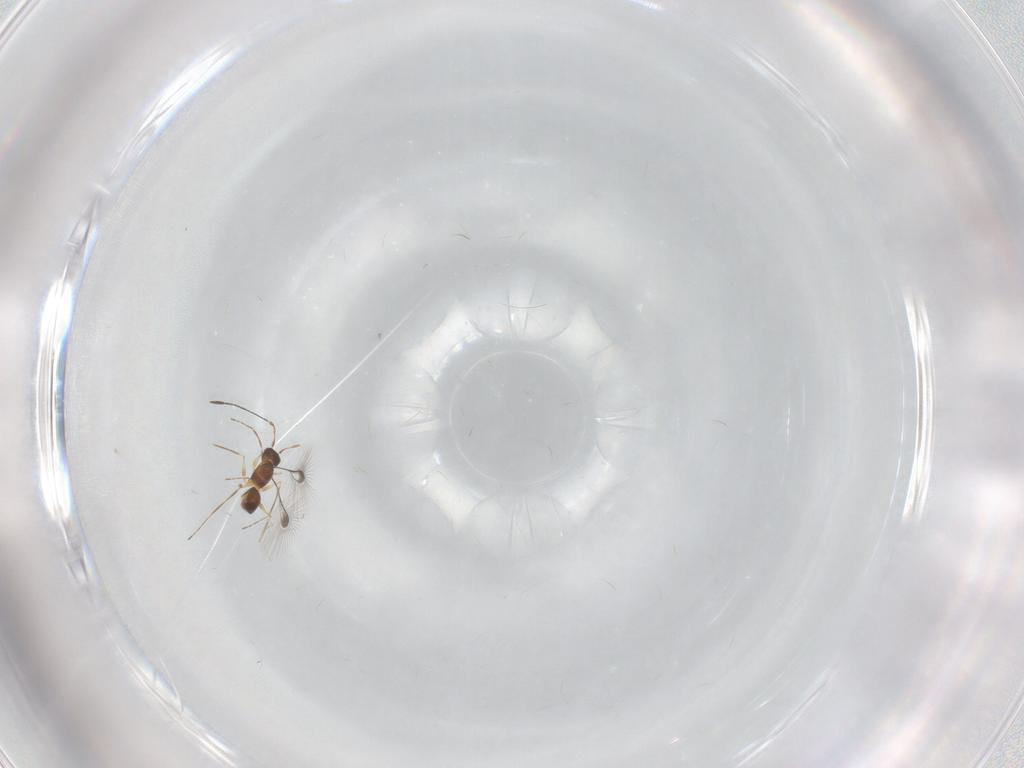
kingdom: Animalia
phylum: Arthropoda
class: Insecta
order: Hymenoptera
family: Mymaridae
